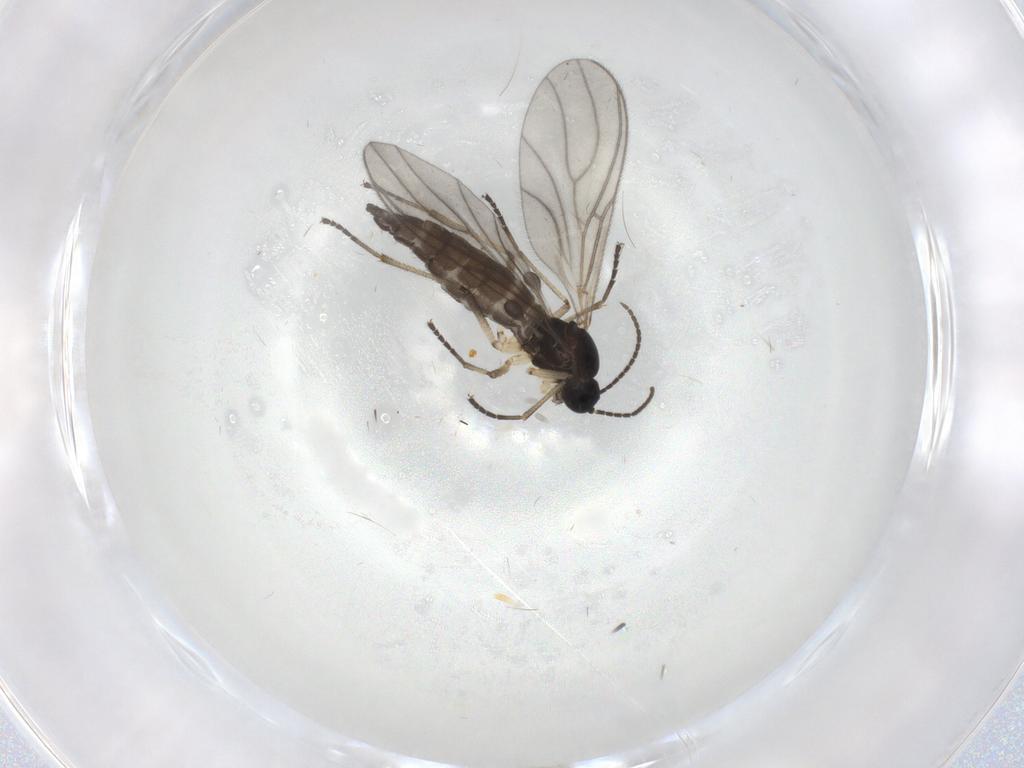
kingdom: Animalia
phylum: Arthropoda
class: Insecta
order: Diptera
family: Sciaridae
